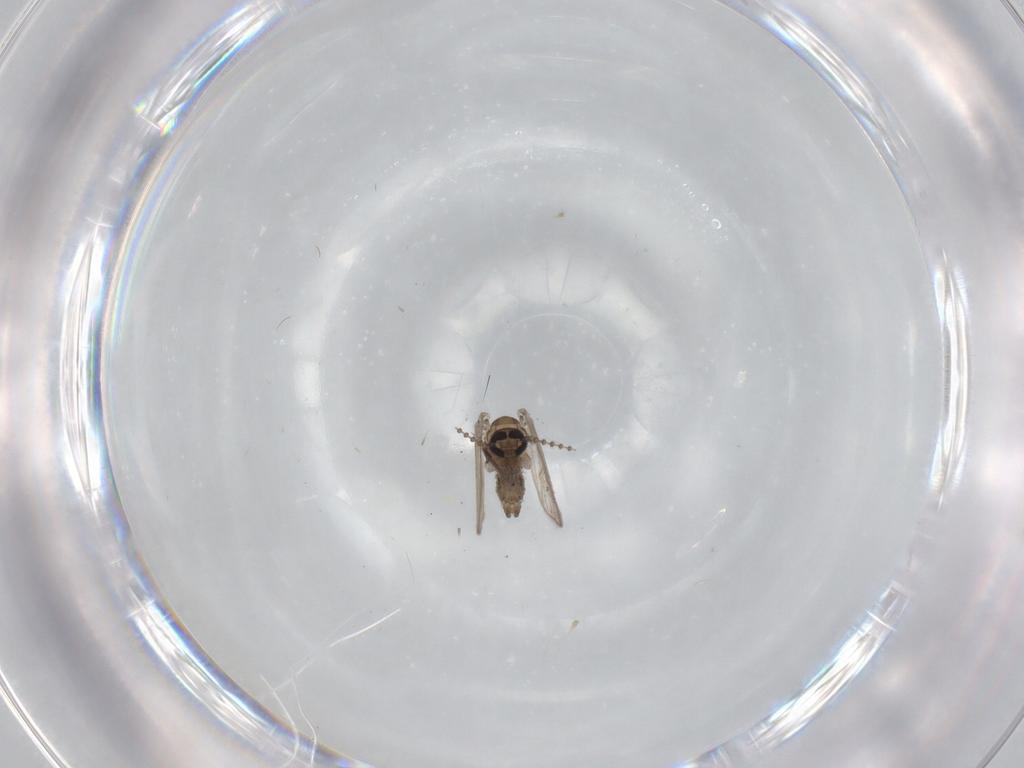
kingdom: Animalia
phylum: Arthropoda
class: Insecta
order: Diptera
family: Psychodidae
